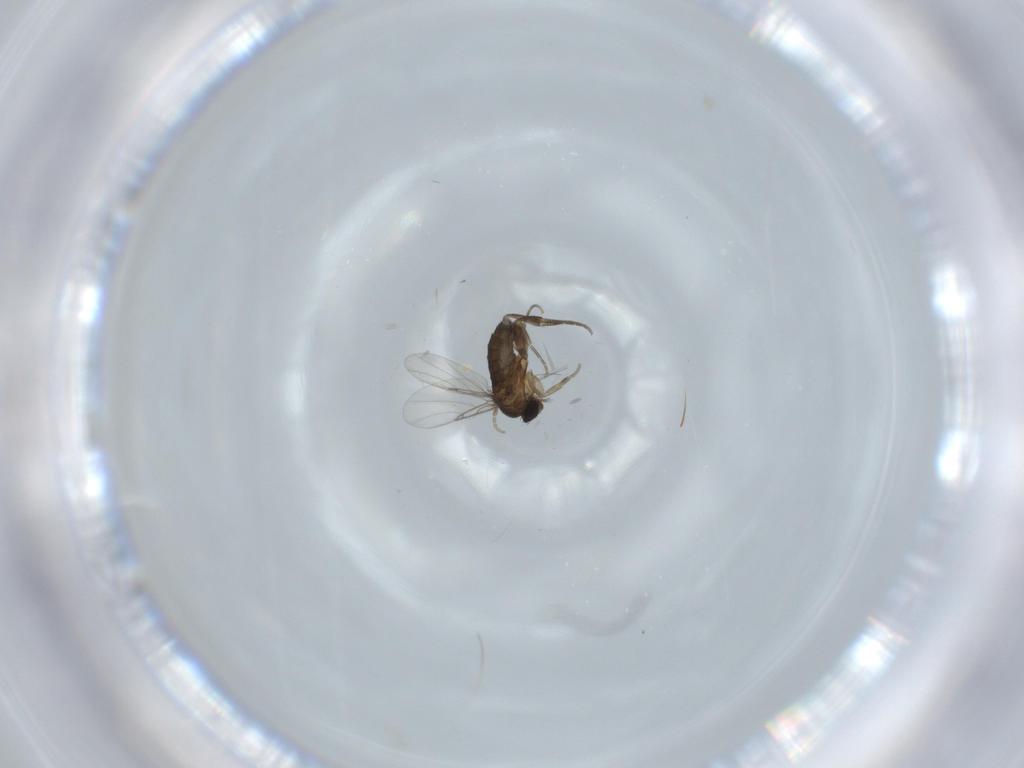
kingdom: Animalia
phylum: Arthropoda
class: Insecta
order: Diptera
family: Phoridae
